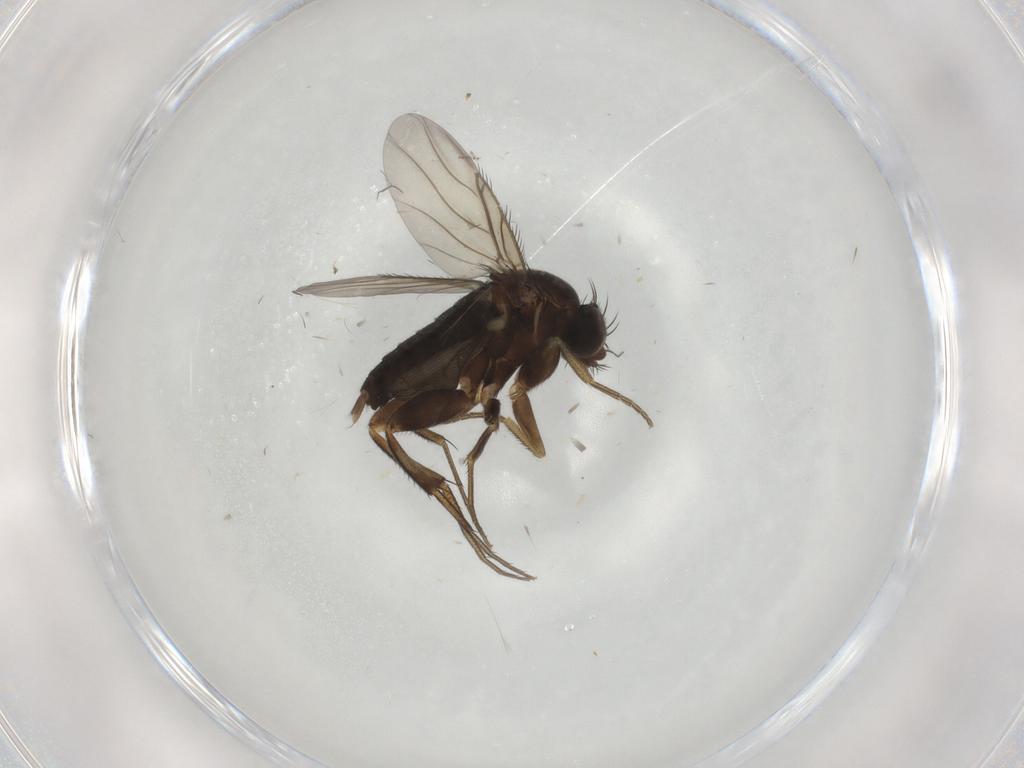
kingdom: Animalia
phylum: Arthropoda
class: Insecta
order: Diptera
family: Phoridae
